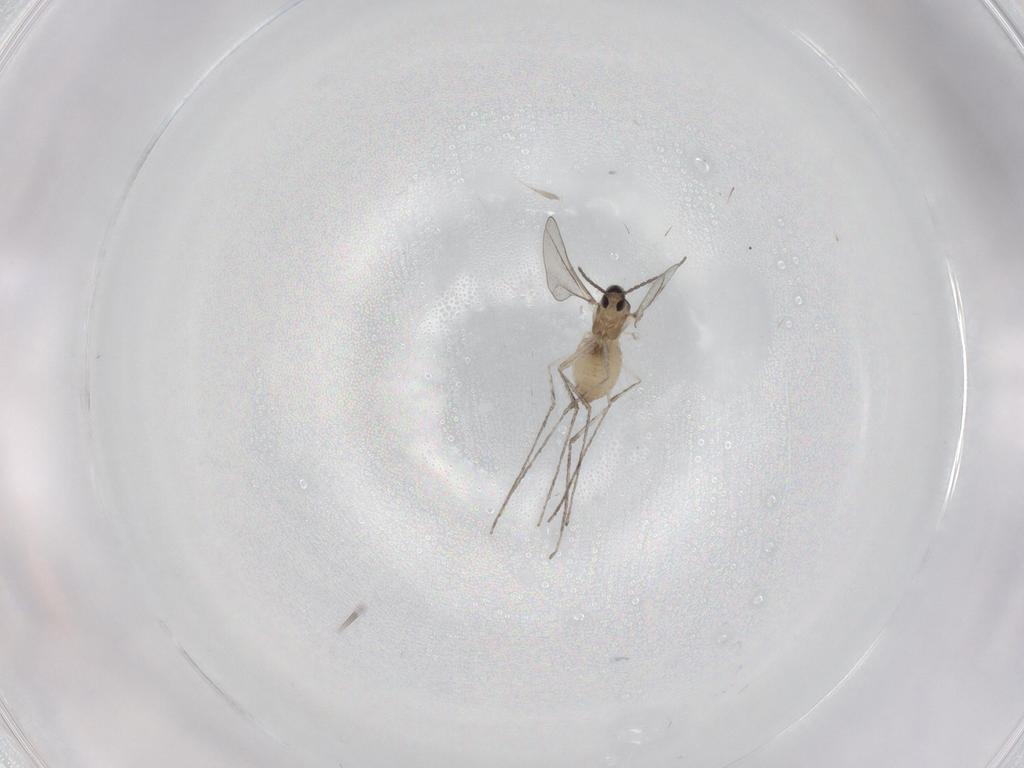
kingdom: Animalia
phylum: Arthropoda
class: Insecta
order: Diptera
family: Cecidomyiidae
